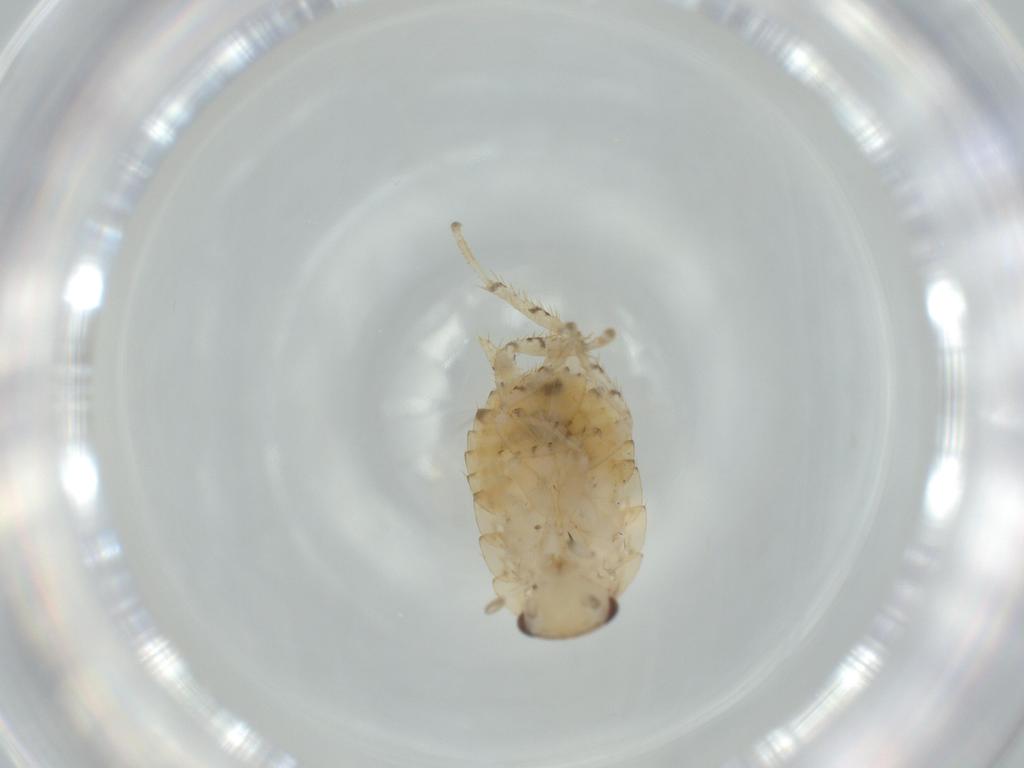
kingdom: Animalia
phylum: Arthropoda
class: Insecta
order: Blattodea
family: Ectobiidae
